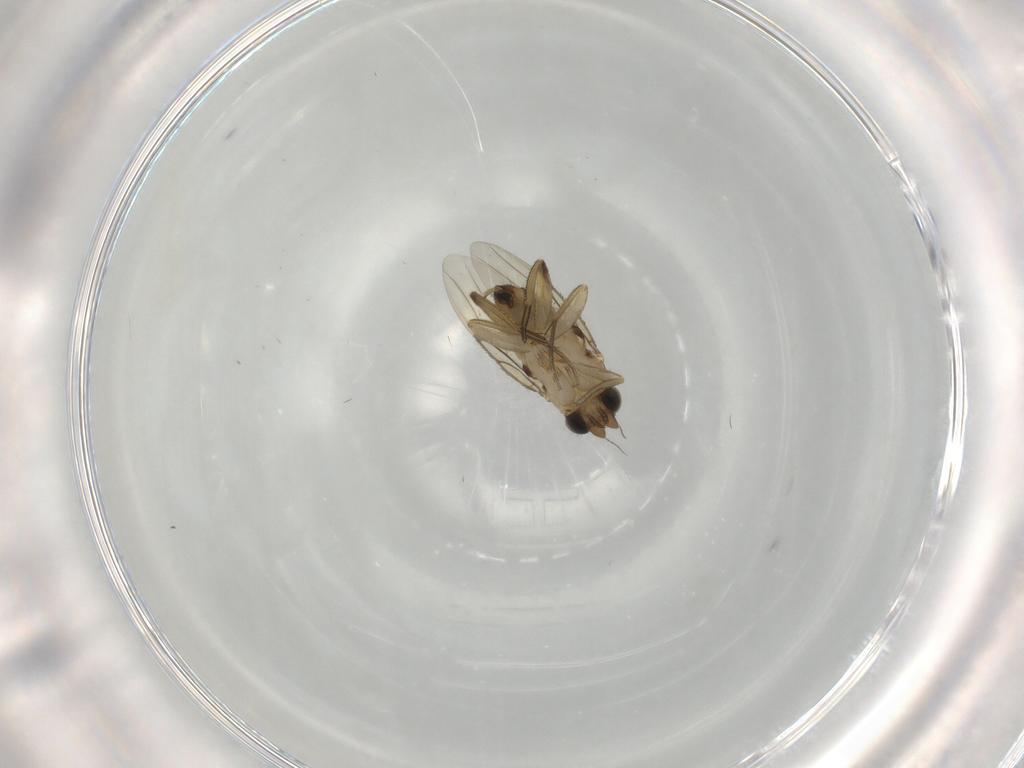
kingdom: Animalia
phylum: Arthropoda
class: Insecta
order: Diptera
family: Phoridae
